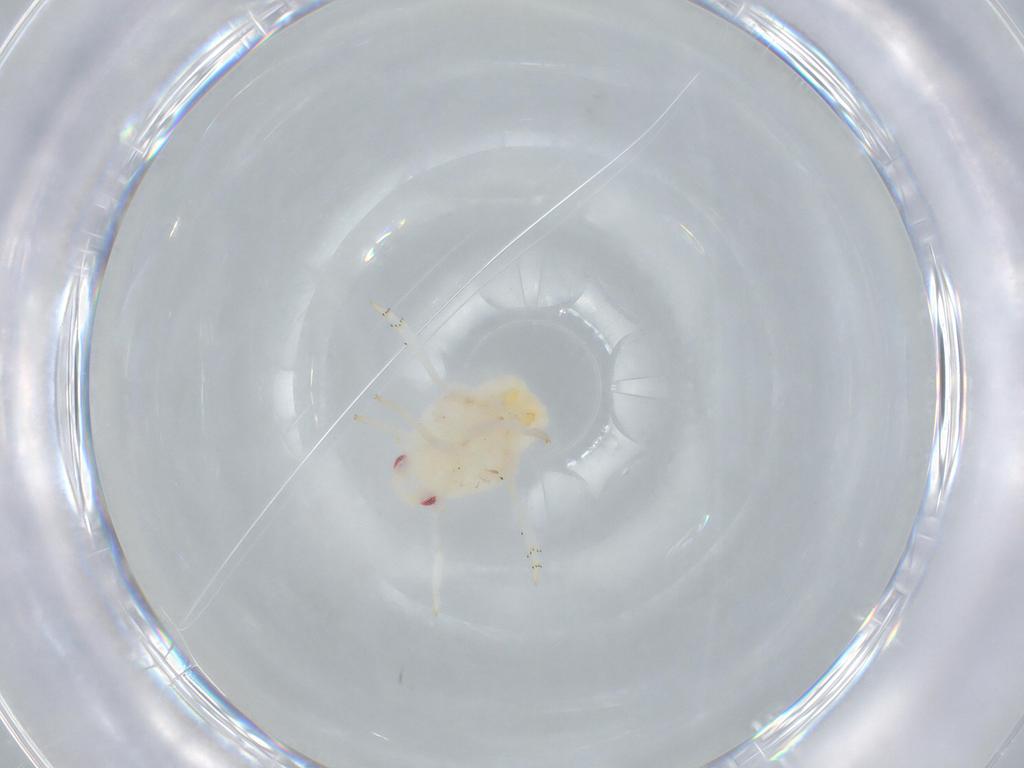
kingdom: Animalia
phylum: Arthropoda
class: Insecta
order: Hemiptera
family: Flatidae
